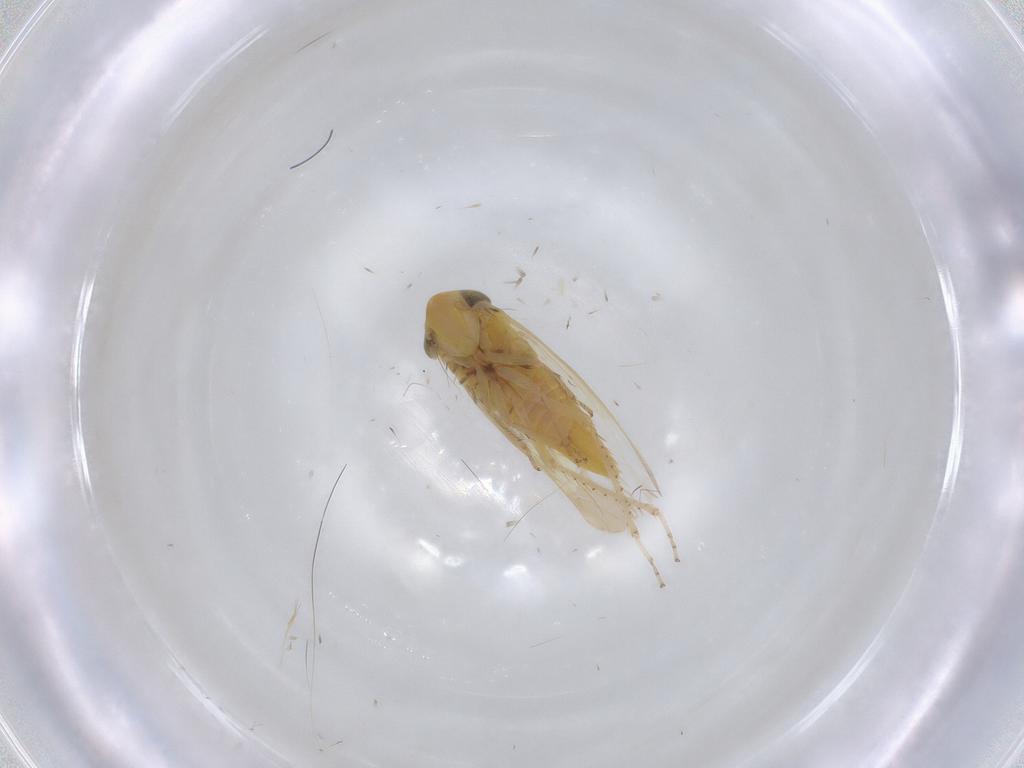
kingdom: Animalia
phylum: Arthropoda
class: Insecta
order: Hemiptera
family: Cicadellidae
